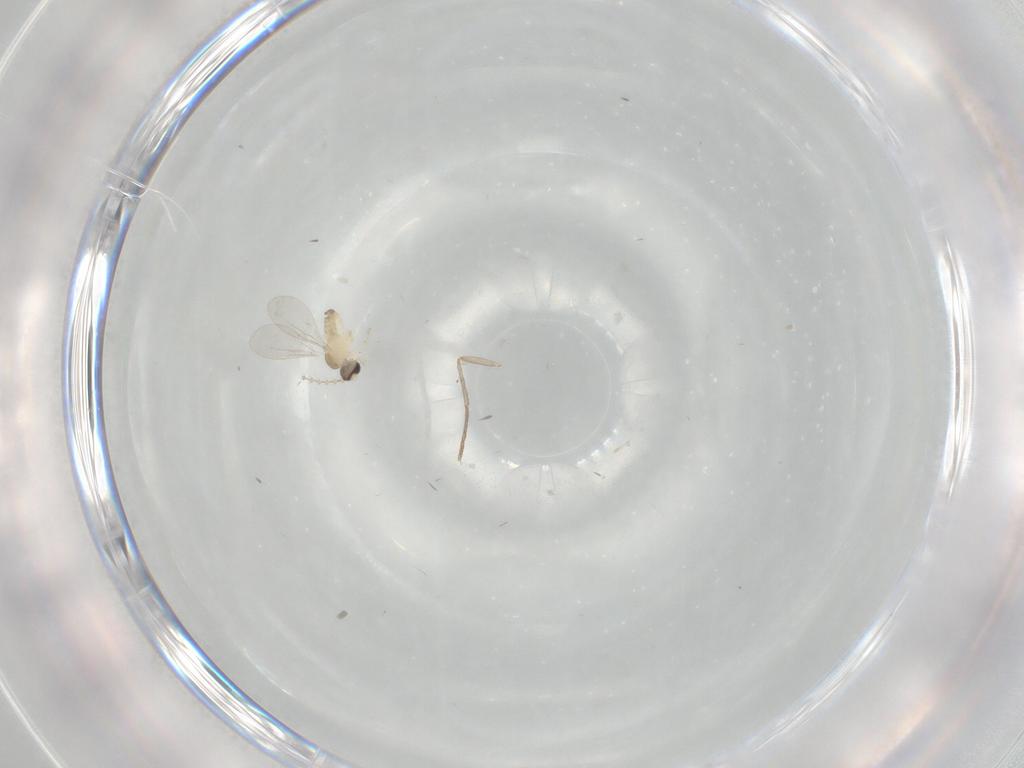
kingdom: Animalia
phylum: Arthropoda
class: Insecta
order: Diptera
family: Cecidomyiidae
